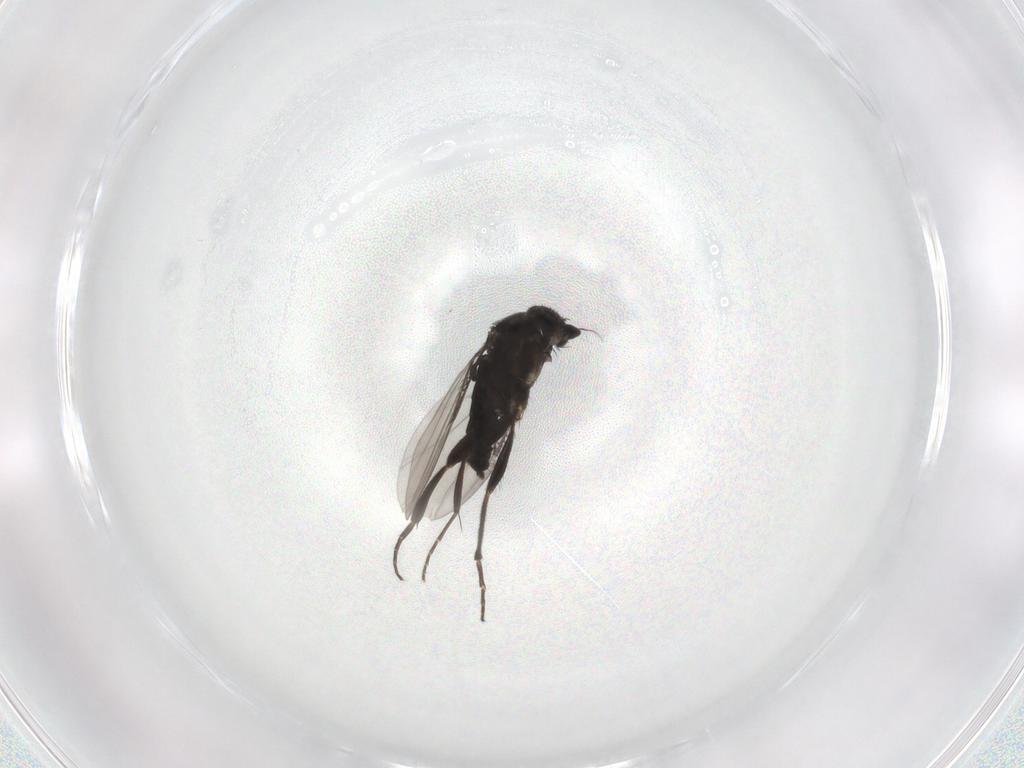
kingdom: Animalia
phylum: Arthropoda
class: Insecta
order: Diptera
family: Phoridae
